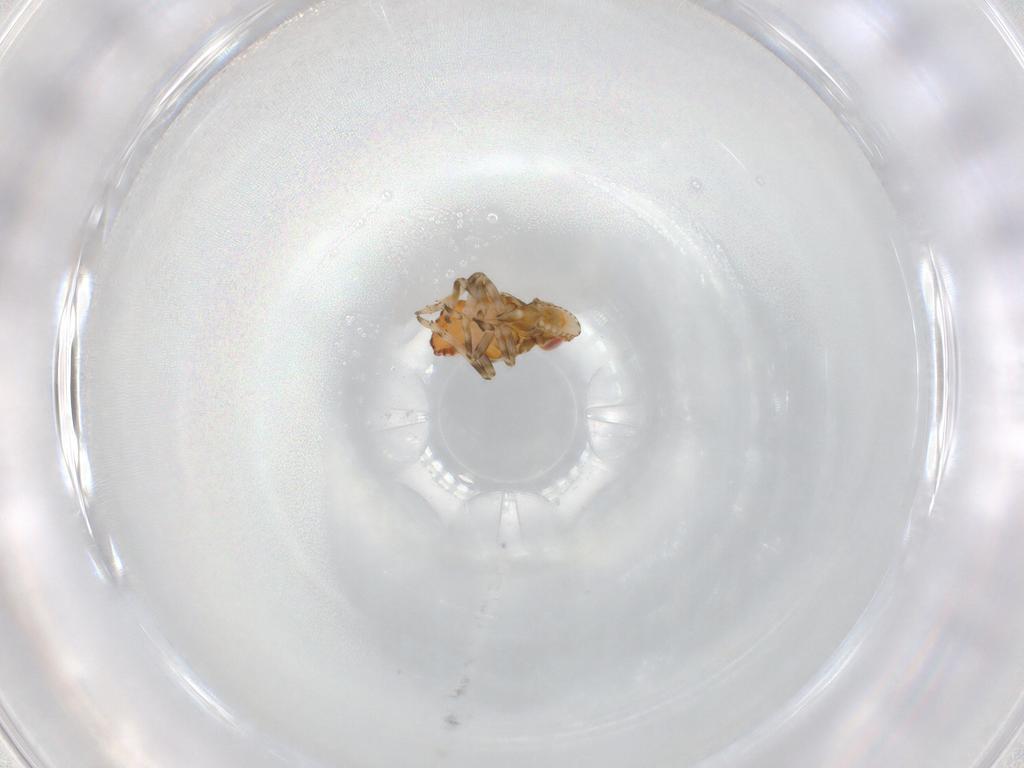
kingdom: Animalia
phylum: Arthropoda
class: Insecta
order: Hemiptera
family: Tropiduchidae
